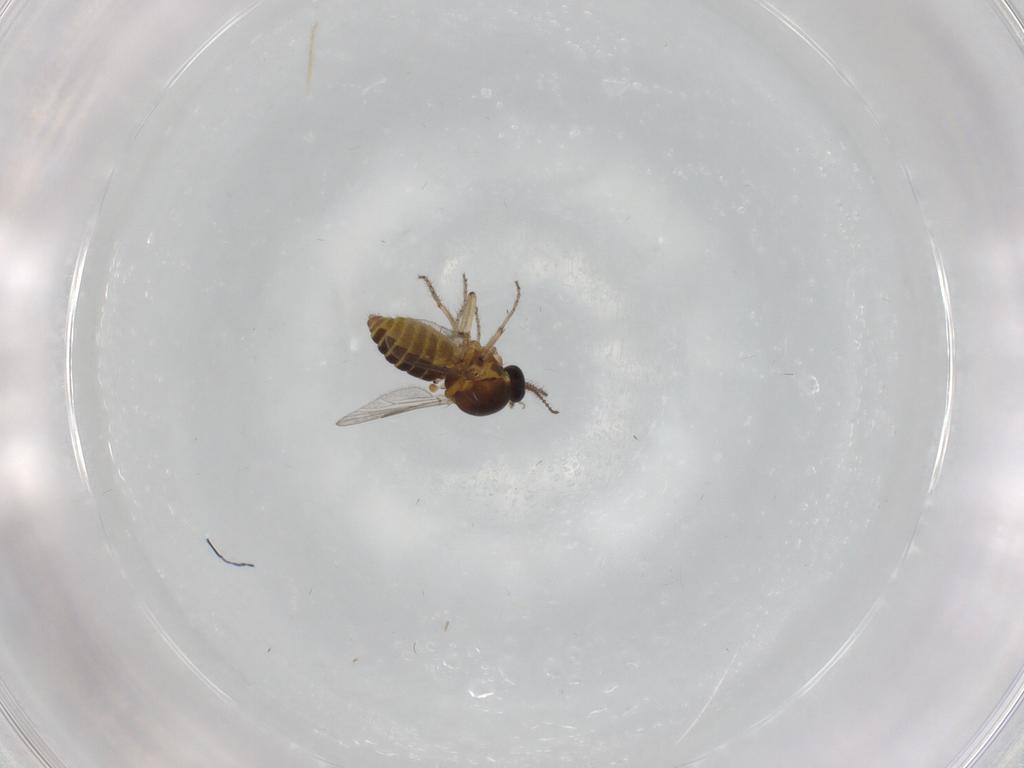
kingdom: Animalia
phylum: Arthropoda
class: Insecta
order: Diptera
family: Ceratopogonidae
